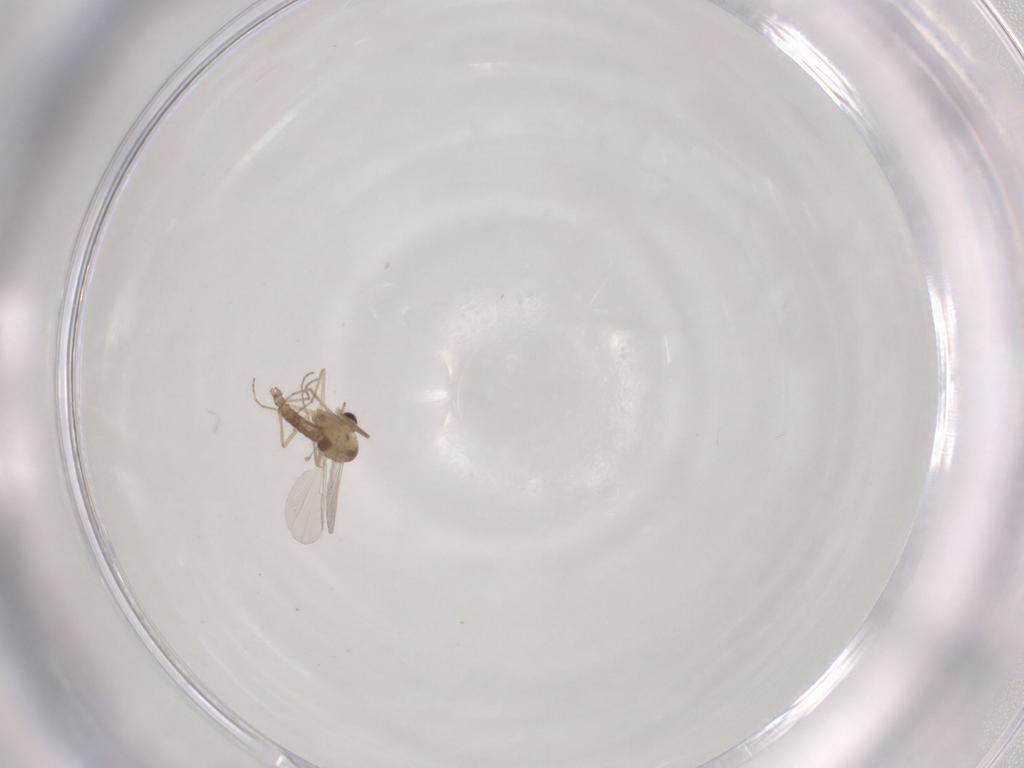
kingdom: Animalia
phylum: Arthropoda
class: Insecta
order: Diptera
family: Chironomidae
